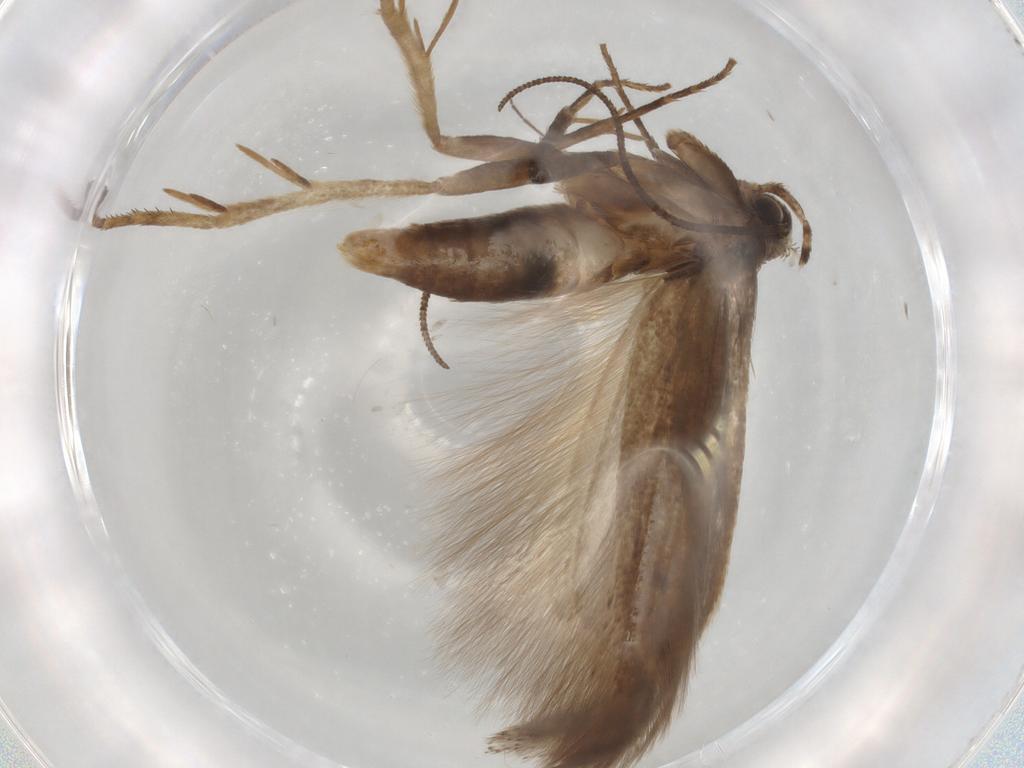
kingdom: Animalia
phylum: Arthropoda
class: Insecta
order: Lepidoptera
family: Gelechiidae
